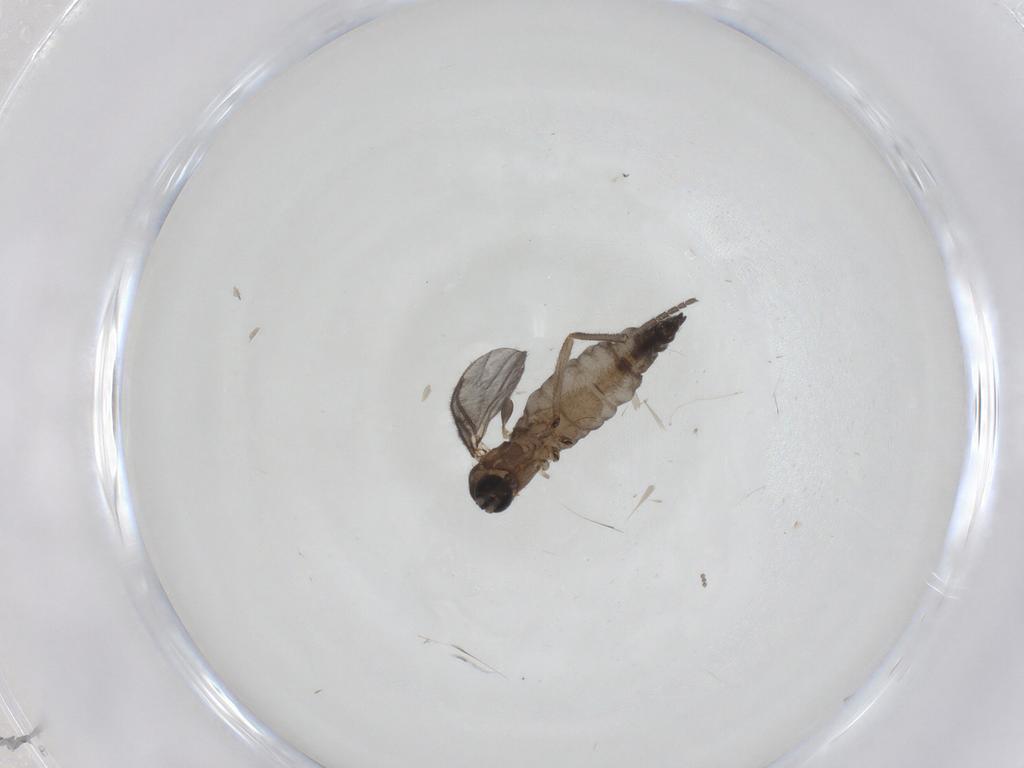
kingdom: Animalia
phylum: Arthropoda
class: Insecta
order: Diptera
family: Sciaridae
